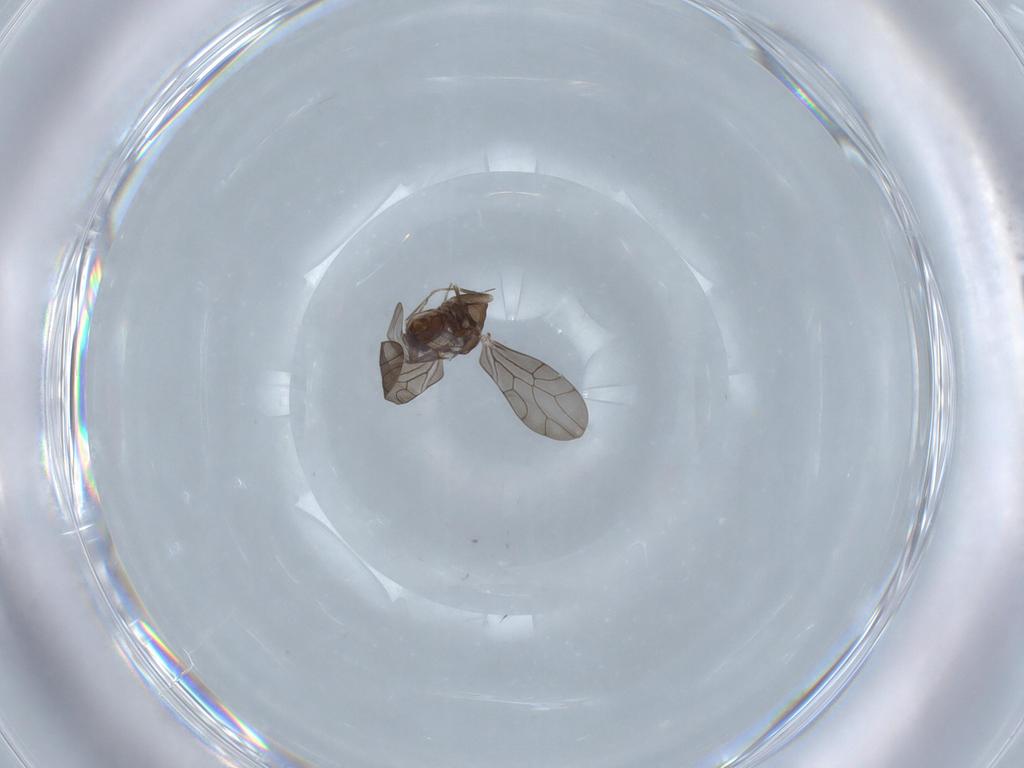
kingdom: Animalia
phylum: Arthropoda
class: Insecta
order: Psocodea
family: Lepidopsocidae
